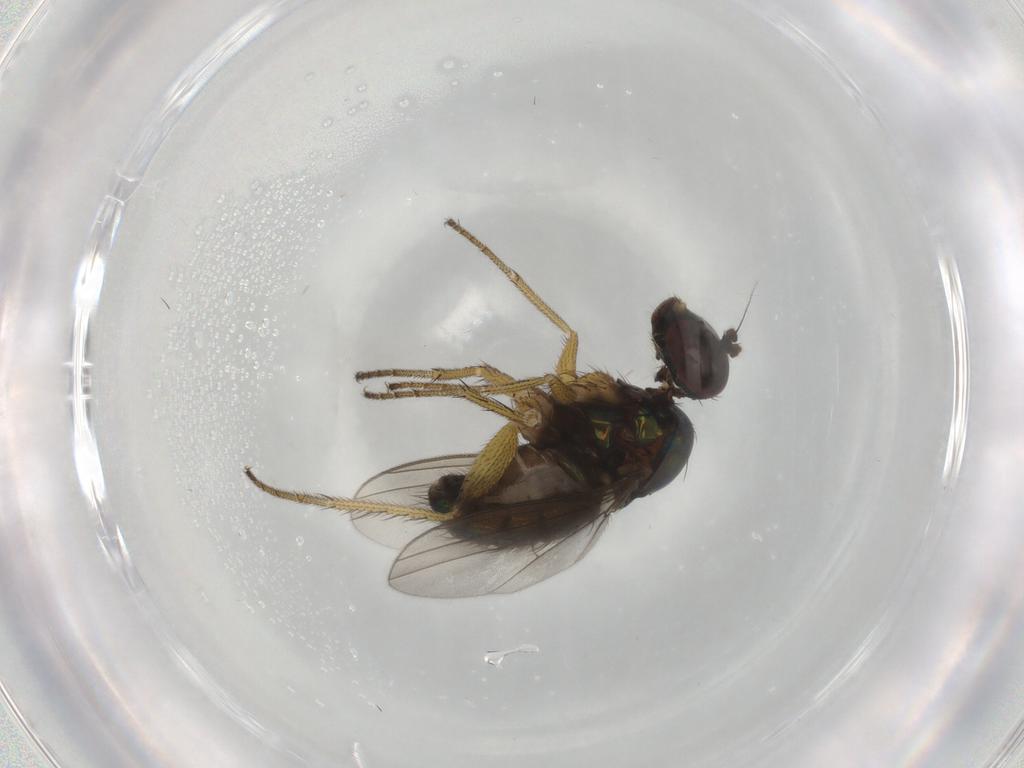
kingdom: Animalia
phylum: Arthropoda
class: Insecta
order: Diptera
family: Dolichopodidae
